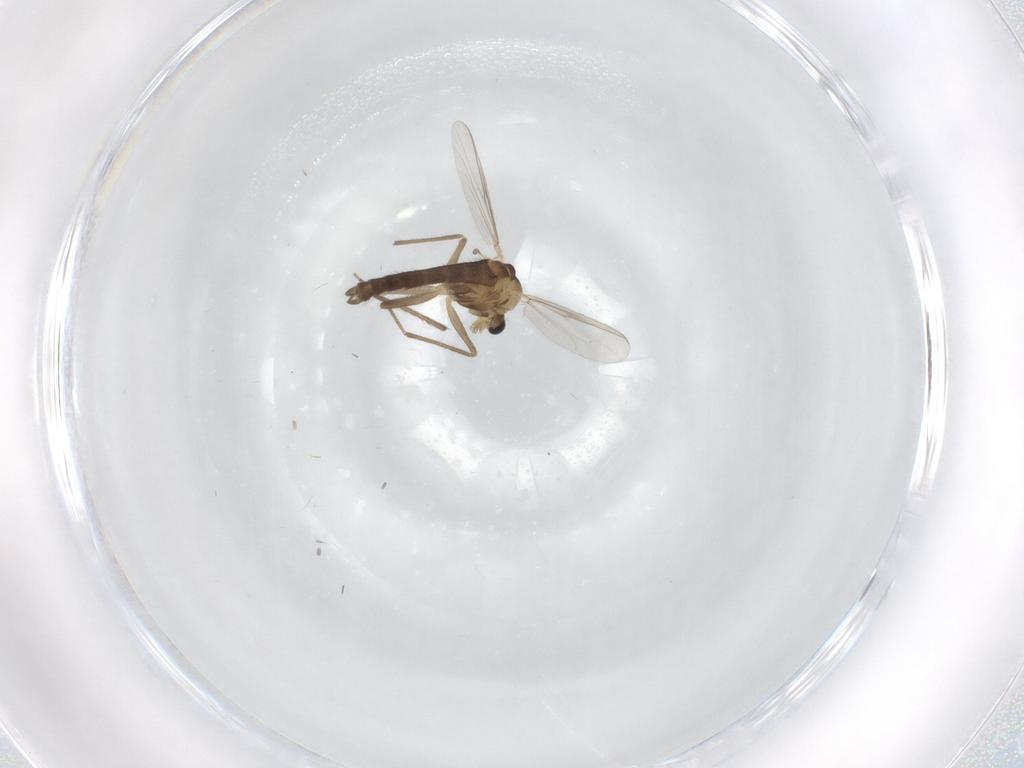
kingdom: Animalia
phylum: Arthropoda
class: Insecta
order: Diptera
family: Chironomidae
